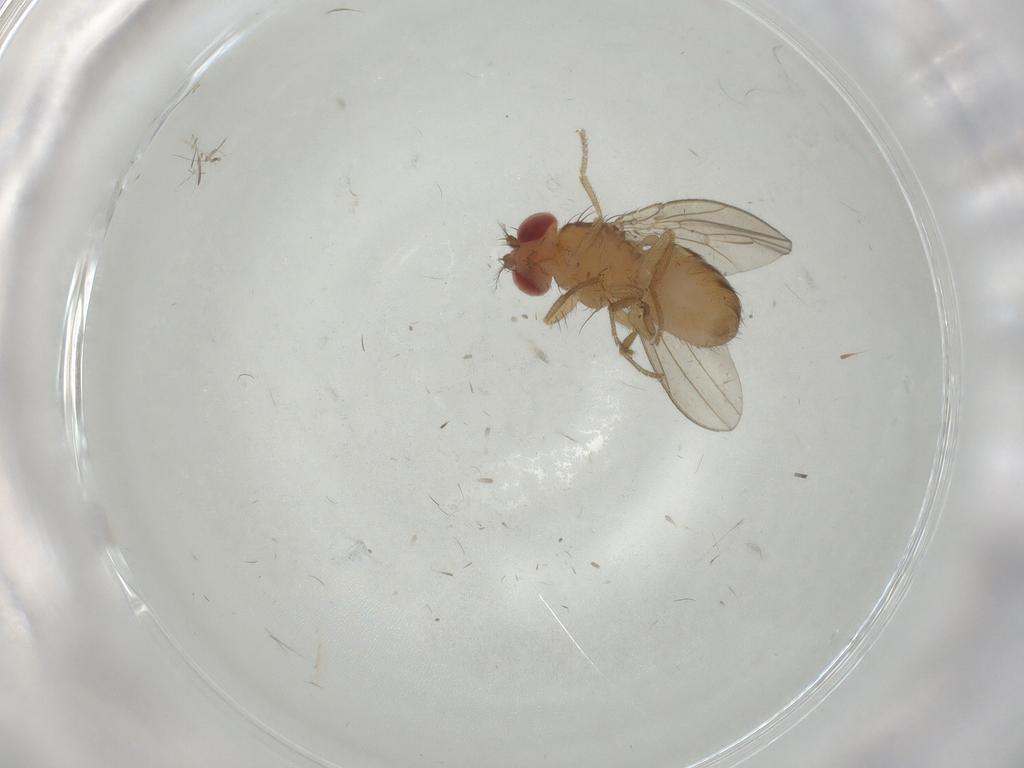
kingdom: Animalia
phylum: Arthropoda
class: Insecta
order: Diptera
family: Drosophilidae
